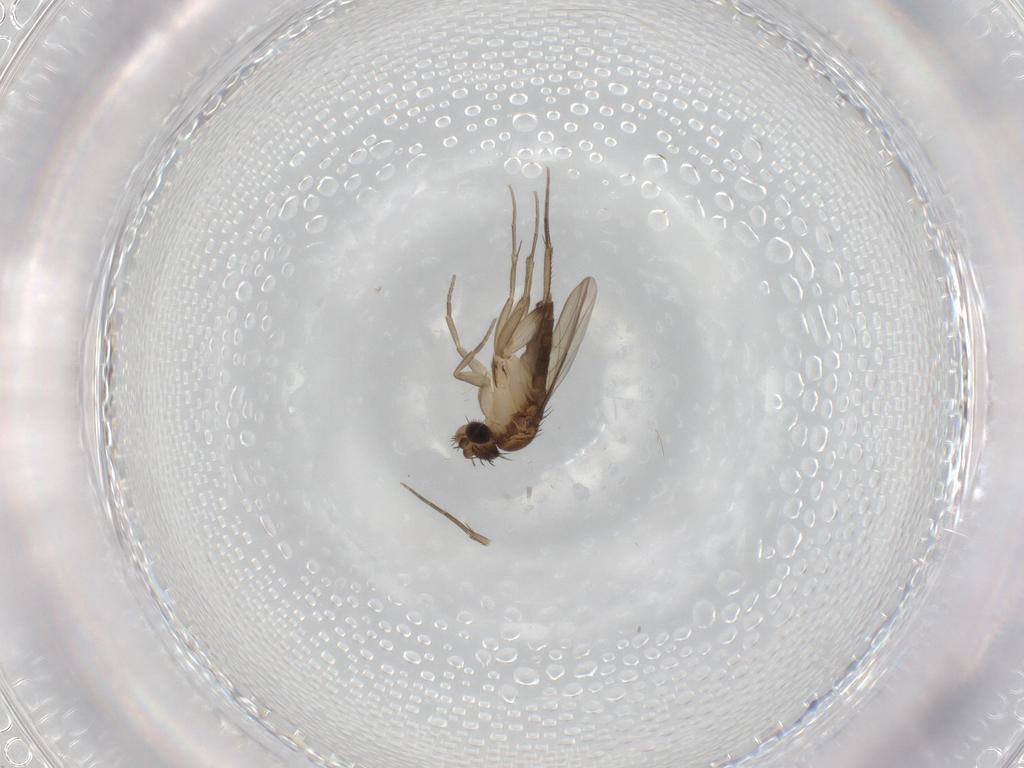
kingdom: Animalia
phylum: Arthropoda
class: Insecta
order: Diptera
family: Phoridae
